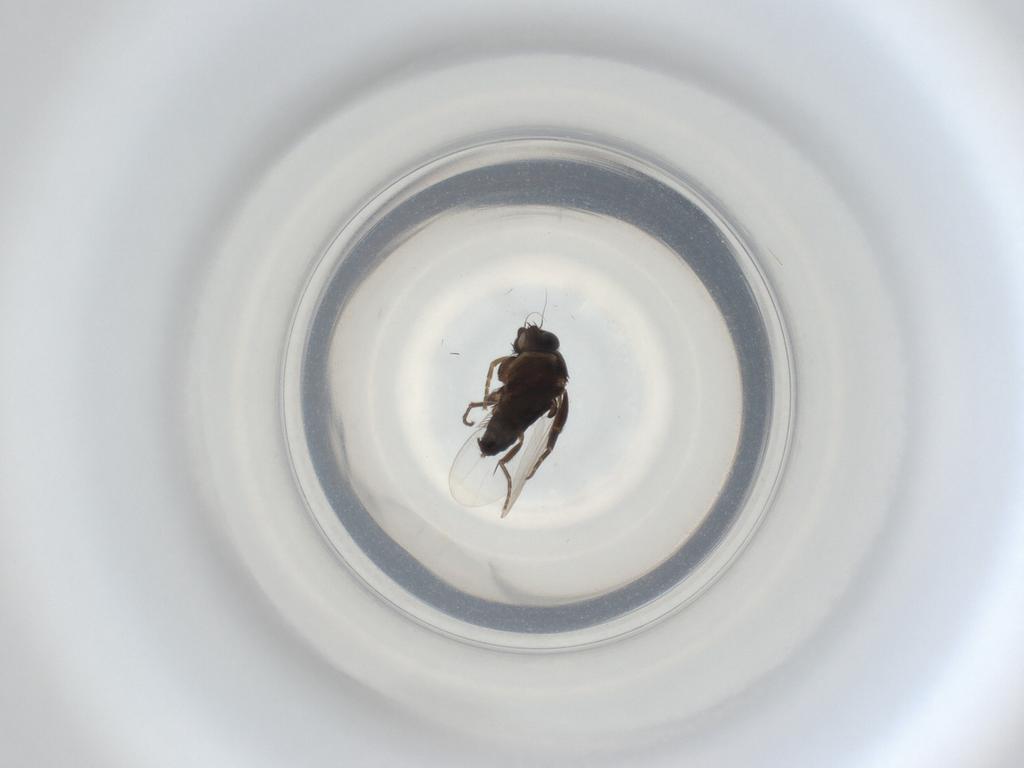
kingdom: Animalia
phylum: Arthropoda
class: Insecta
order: Diptera
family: Phoridae
